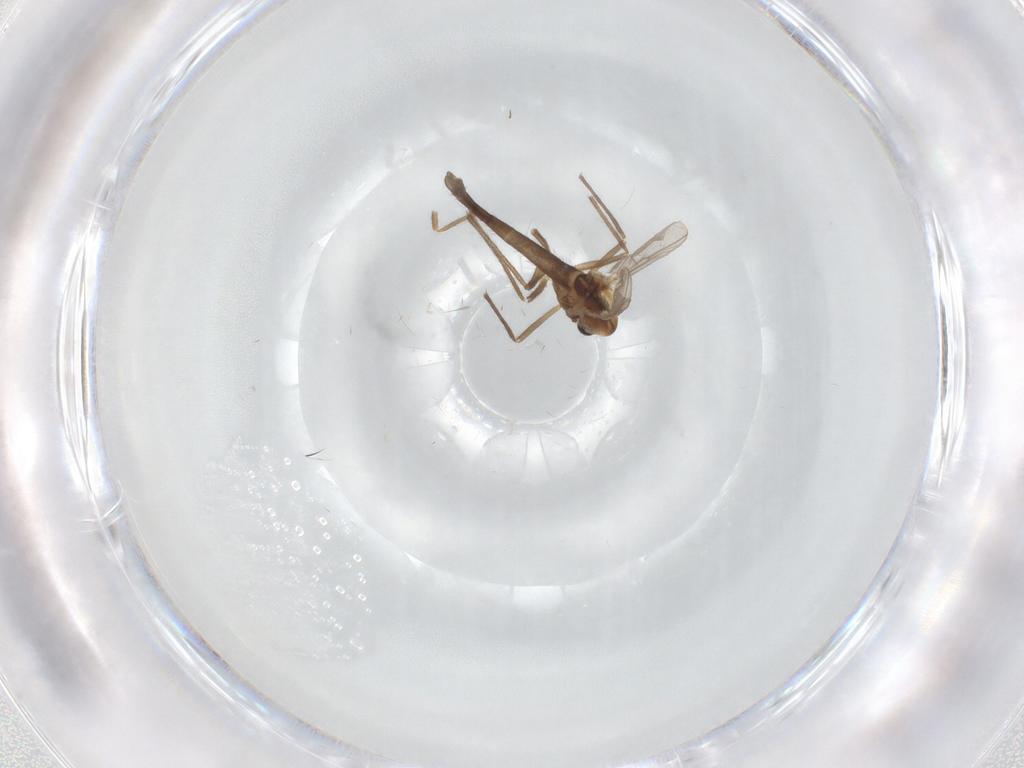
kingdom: Animalia
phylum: Arthropoda
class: Insecta
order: Diptera
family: Chironomidae
